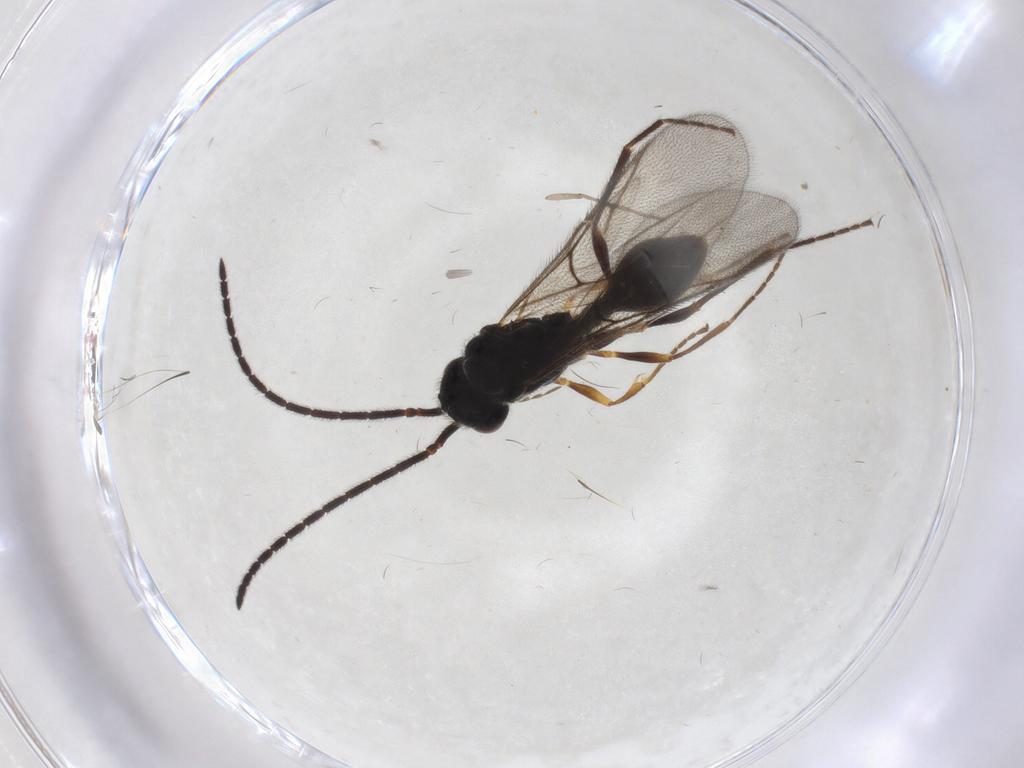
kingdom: Animalia
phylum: Arthropoda
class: Insecta
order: Hymenoptera
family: Diapriidae
